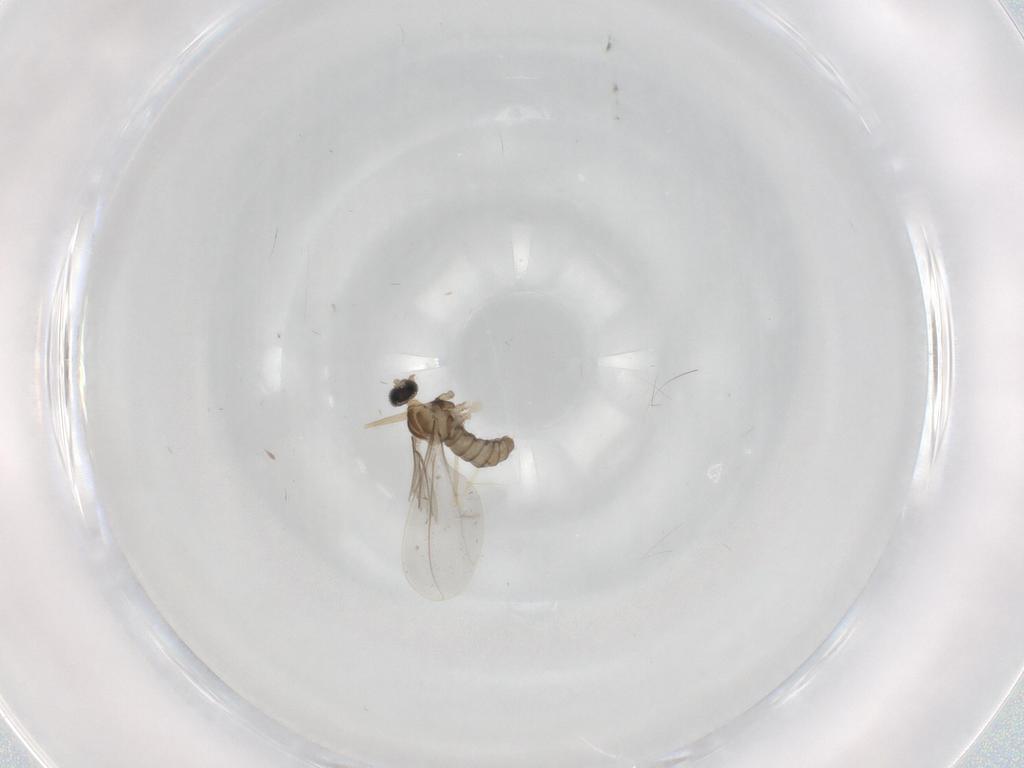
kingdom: Animalia
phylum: Arthropoda
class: Insecta
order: Diptera
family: Cecidomyiidae
